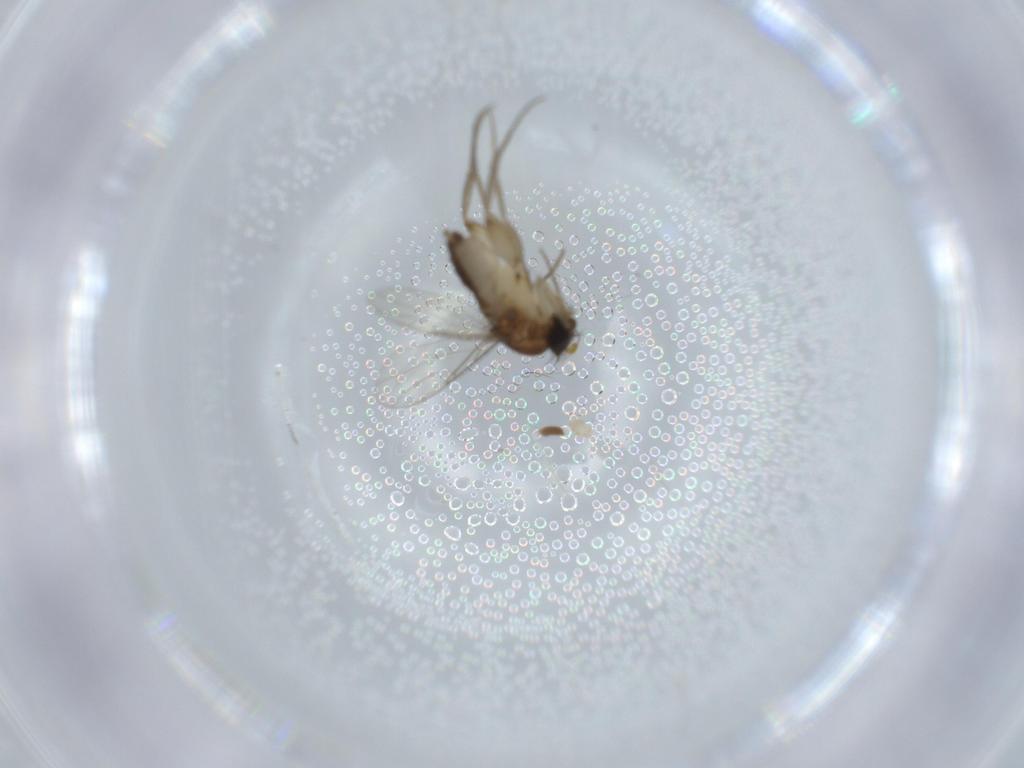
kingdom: Animalia
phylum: Arthropoda
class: Insecta
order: Diptera
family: Phoridae
